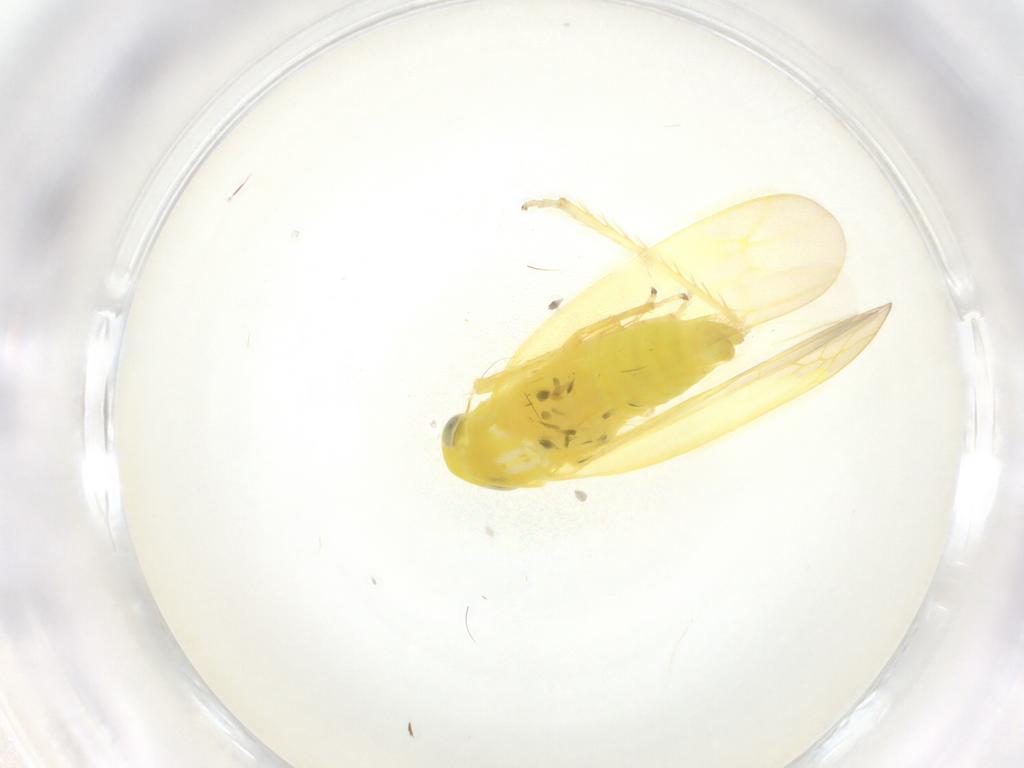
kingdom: Animalia
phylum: Arthropoda
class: Insecta
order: Hemiptera
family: Cicadellidae
